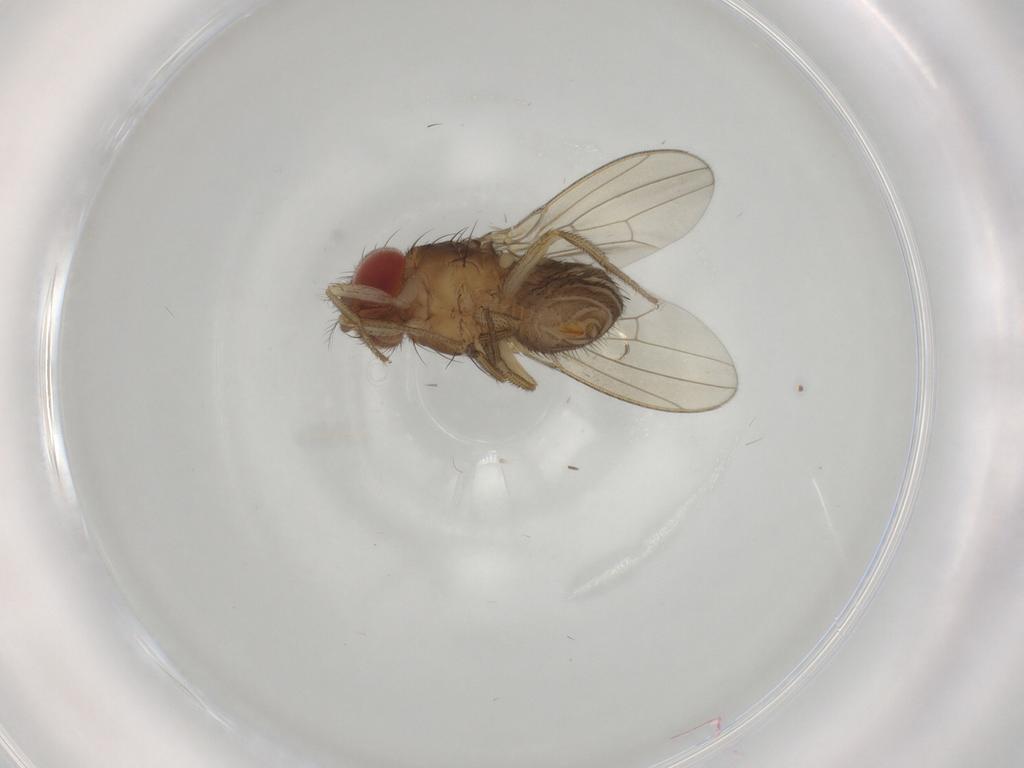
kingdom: Animalia
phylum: Arthropoda
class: Insecta
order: Diptera
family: Drosophilidae
